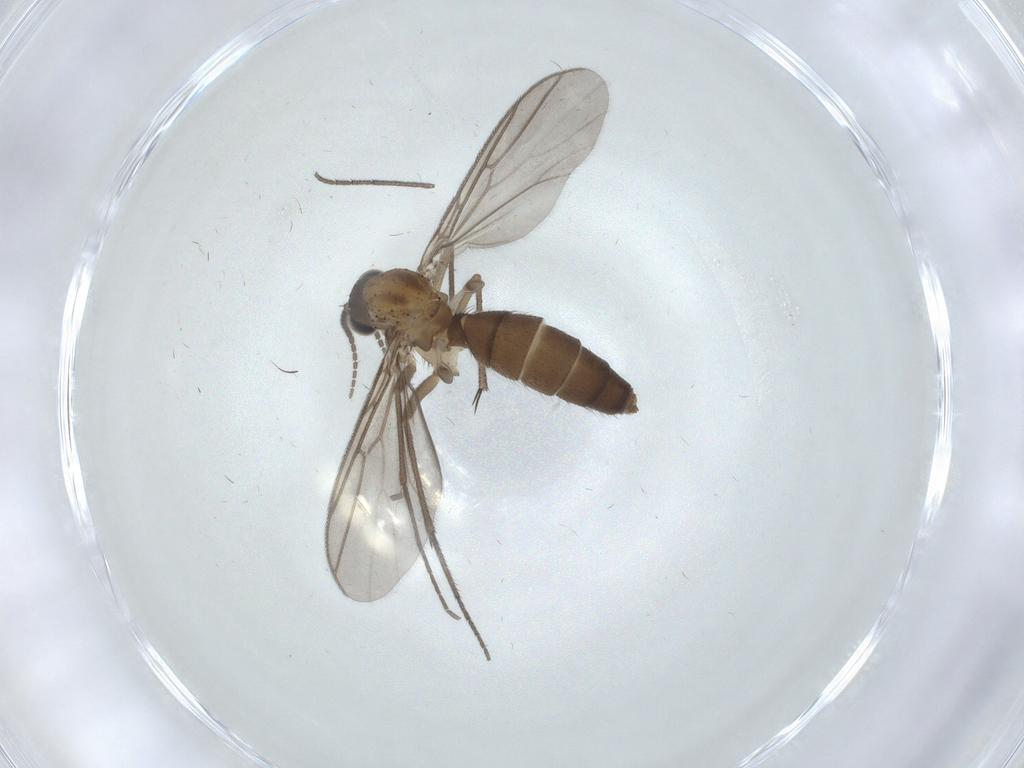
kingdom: Animalia
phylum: Arthropoda
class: Insecta
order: Diptera
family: Mycetophilidae
